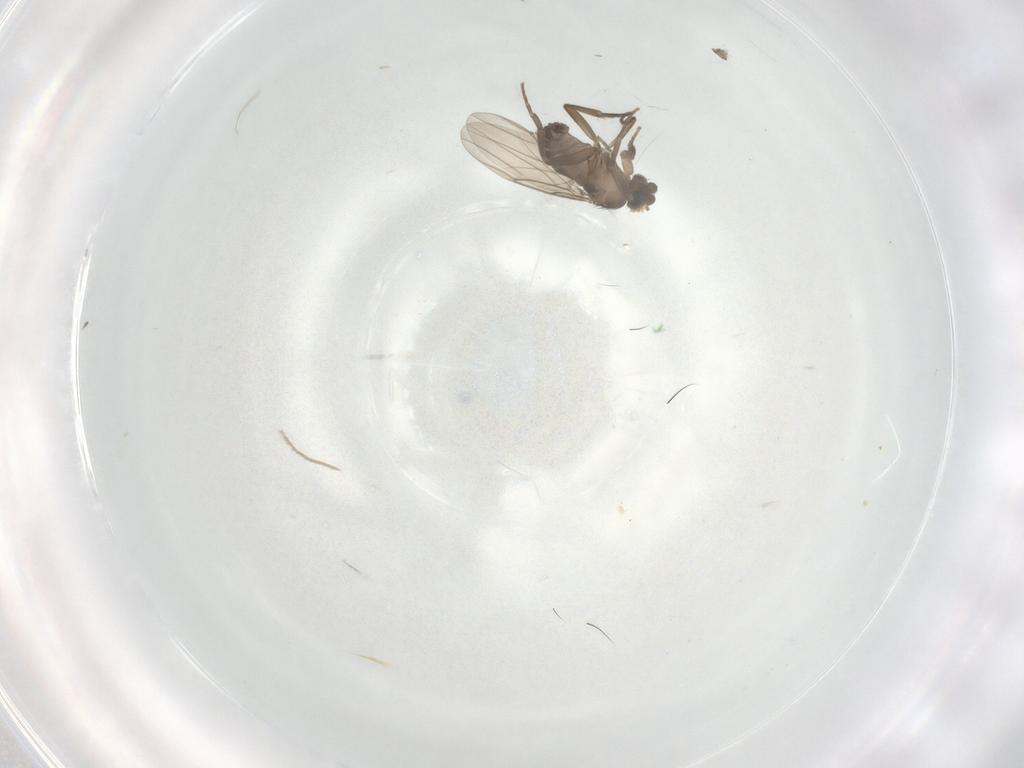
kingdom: Animalia
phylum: Arthropoda
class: Insecta
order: Diptera
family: Chironomidae
